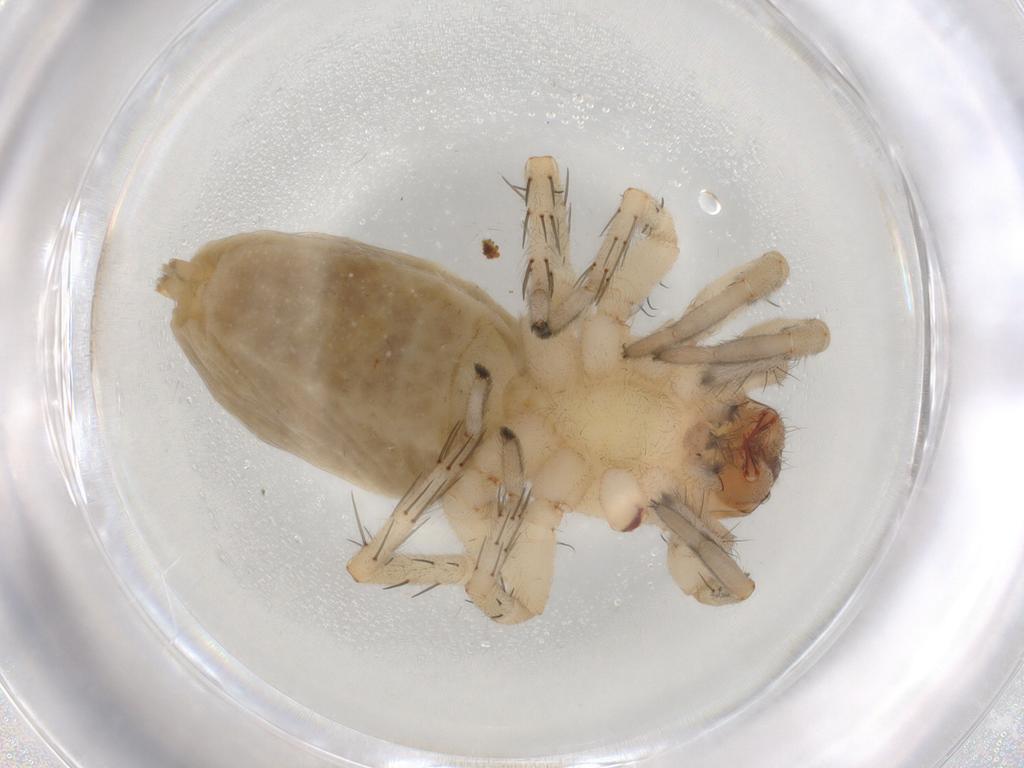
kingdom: Animalia
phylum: Arthropoda
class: Arachnida
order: Araneae
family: Clubionidae
